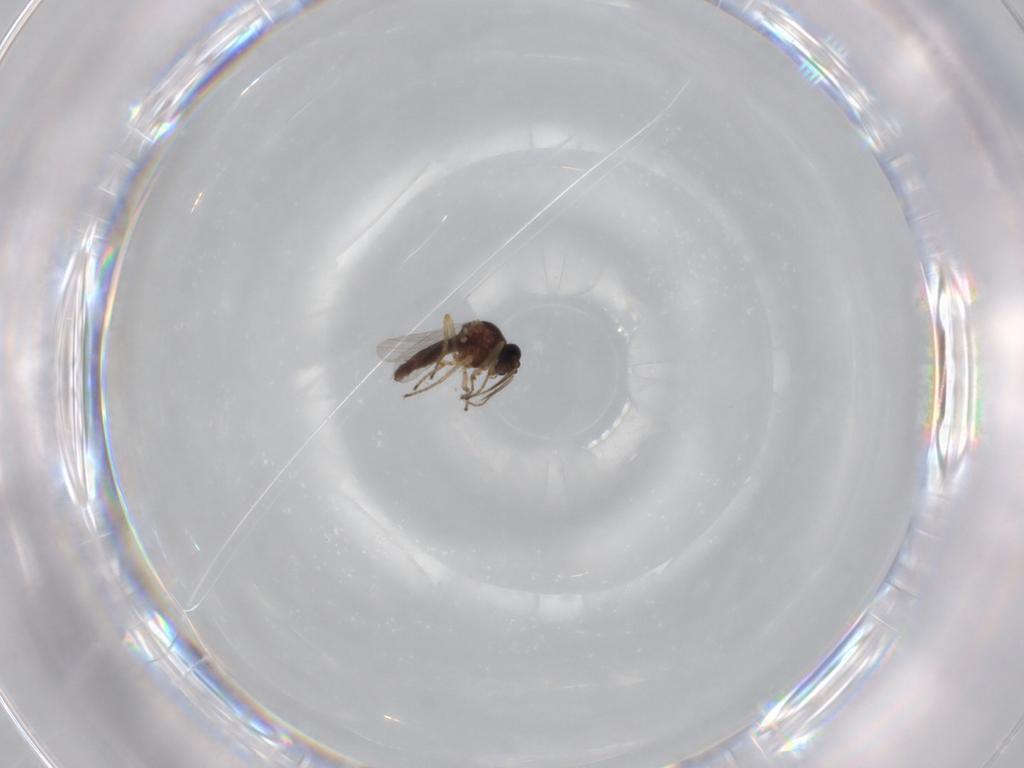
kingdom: Animalia
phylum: Arthropoda
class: Insecta
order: Diptera
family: Ceratopogonidae
